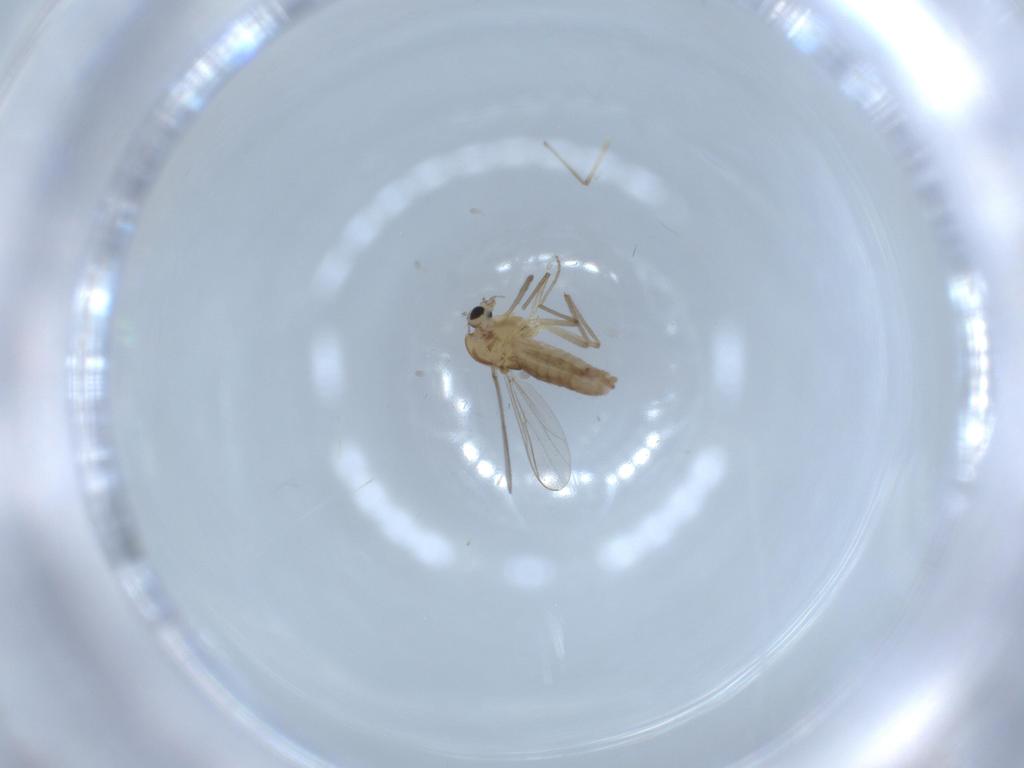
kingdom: Animalia
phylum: Arthropoda
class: Insecta
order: Diptera
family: Chironomidae
